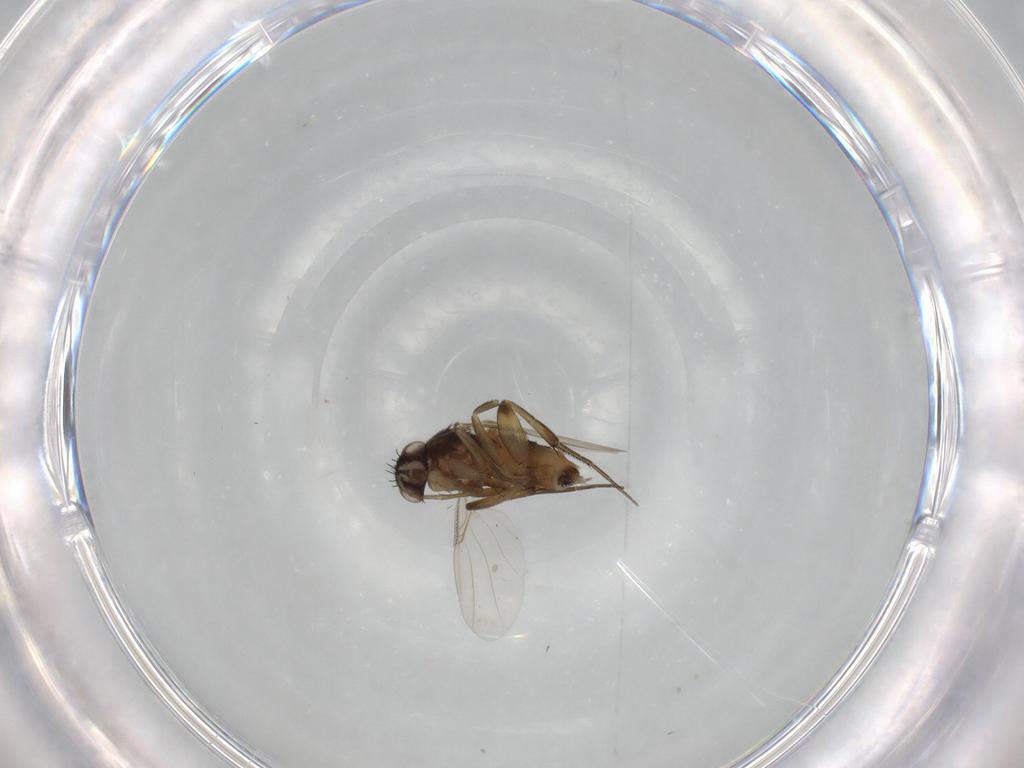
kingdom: Animalia
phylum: Arthropoda
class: Insecta
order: Diptera
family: Phoridae
